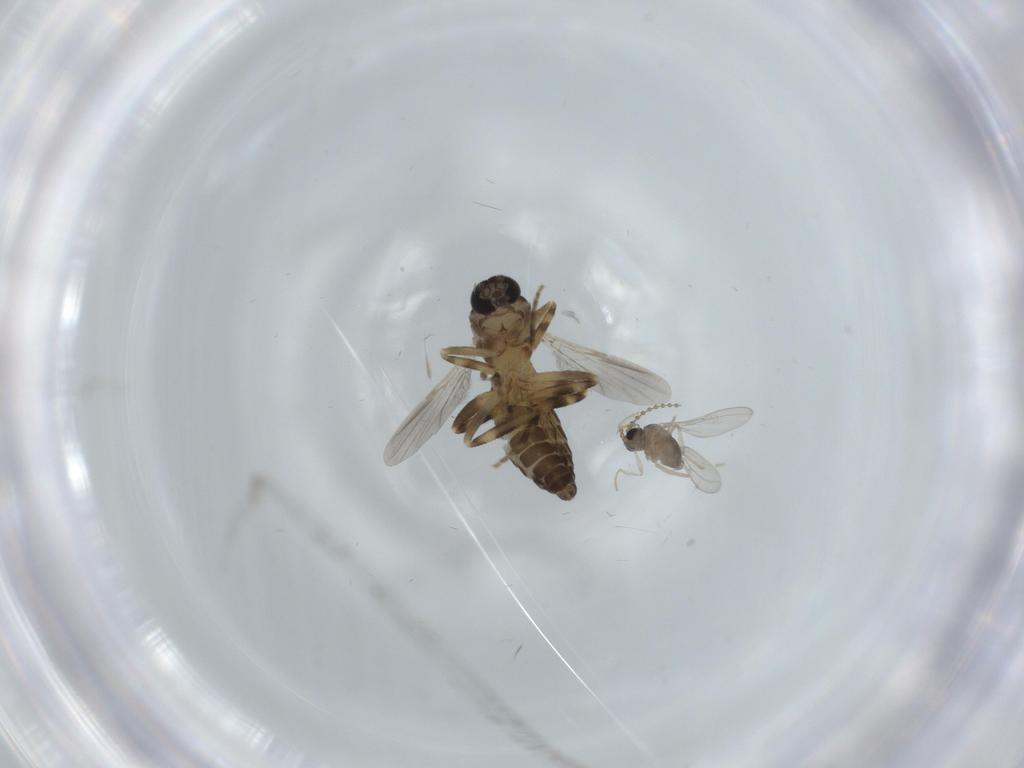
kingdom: Animalia
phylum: Arthropoda
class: Insecta
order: Diptera
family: Ceratopogonidae
